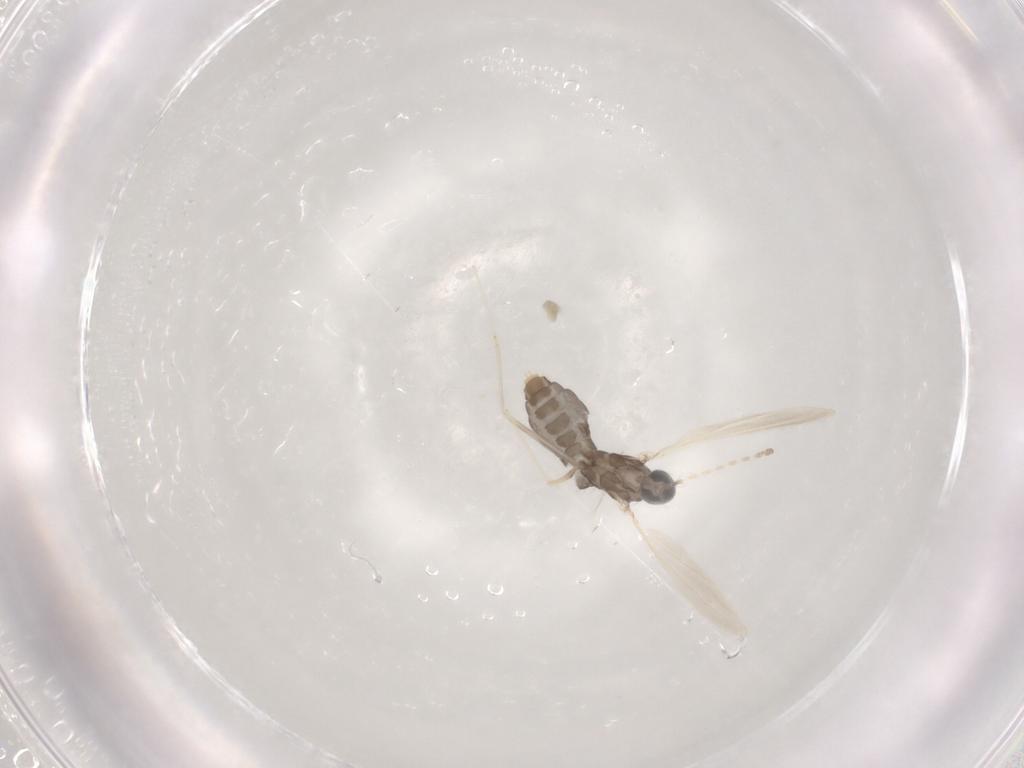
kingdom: Animalia
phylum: Arthropoda
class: Insecta
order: Diptera
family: Cecidomyiidae
